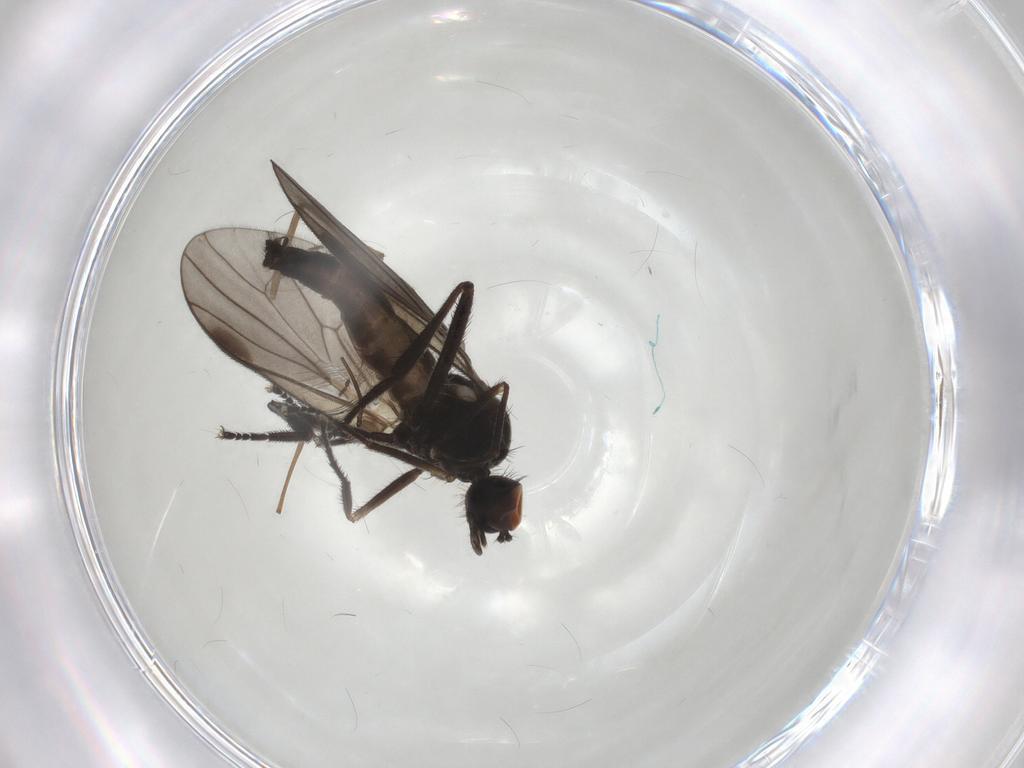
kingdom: Animalia
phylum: Arthropoda
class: Insecta
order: Diptera
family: Hybotidae
